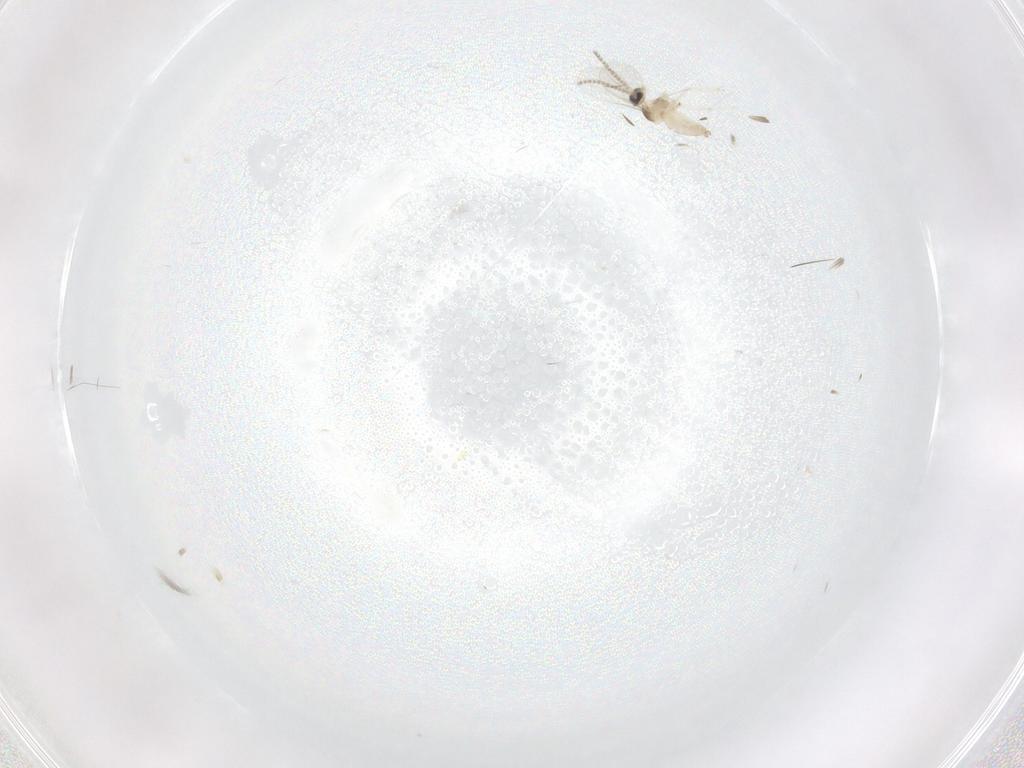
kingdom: Animalia
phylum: Arthropoda
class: Insecta
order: Diptera
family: Cecidomyiidae
